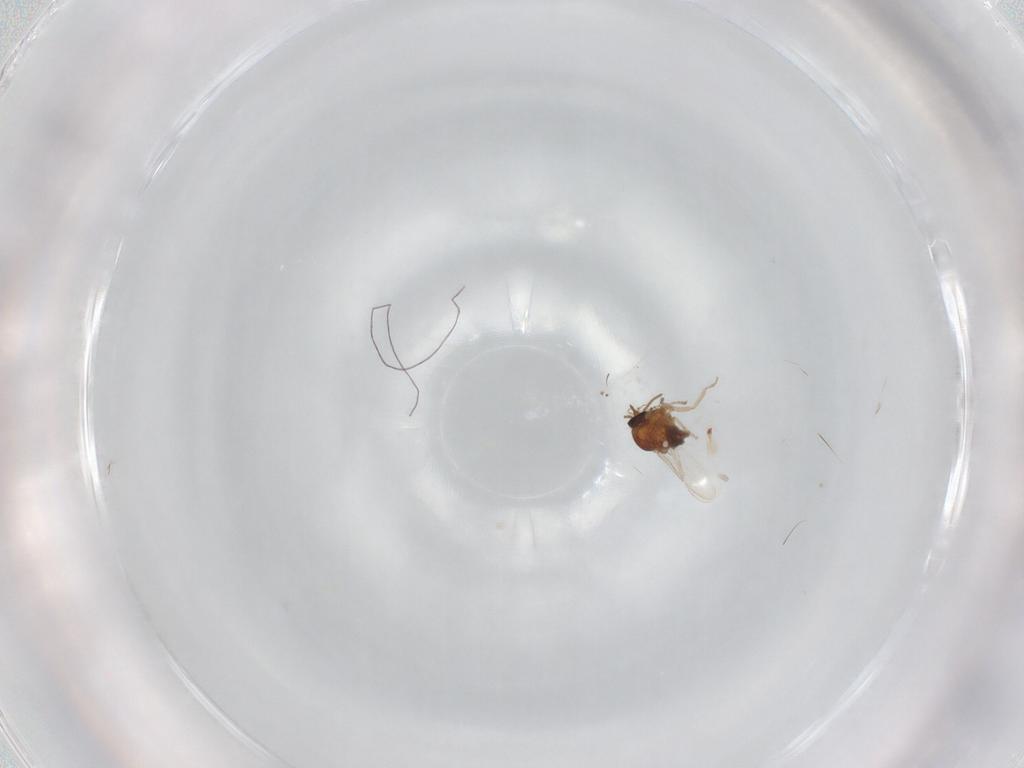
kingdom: Animalia
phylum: Arthropoda
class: Insecta
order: Diptera
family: Ceratopogonidae
